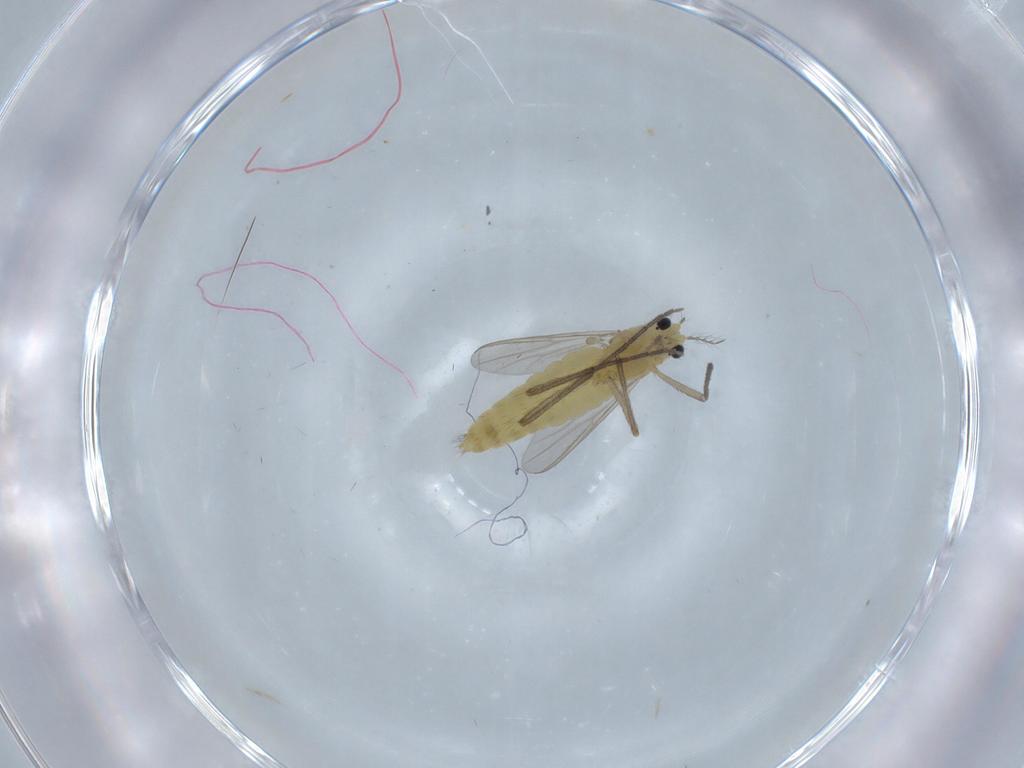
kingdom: Animalia
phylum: Arthropoda
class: Insecta
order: Diptera
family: Chironomidae
